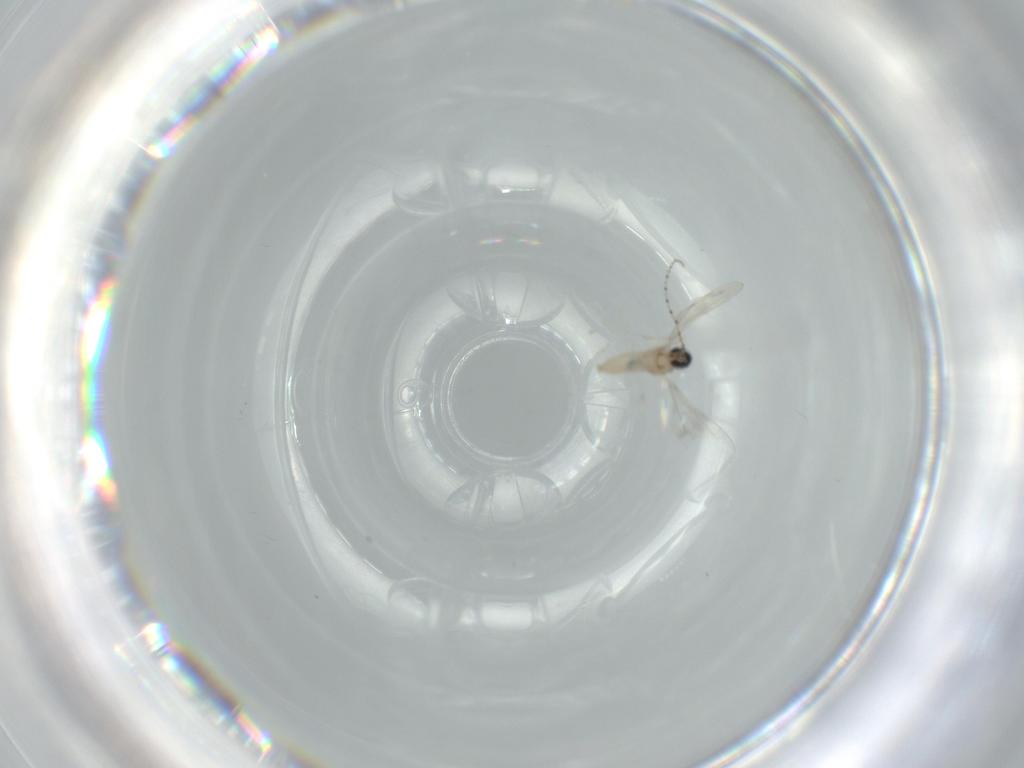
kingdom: Animalia
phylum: Arthropoda
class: Insecta
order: Diptera
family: Cecidomyiidae
